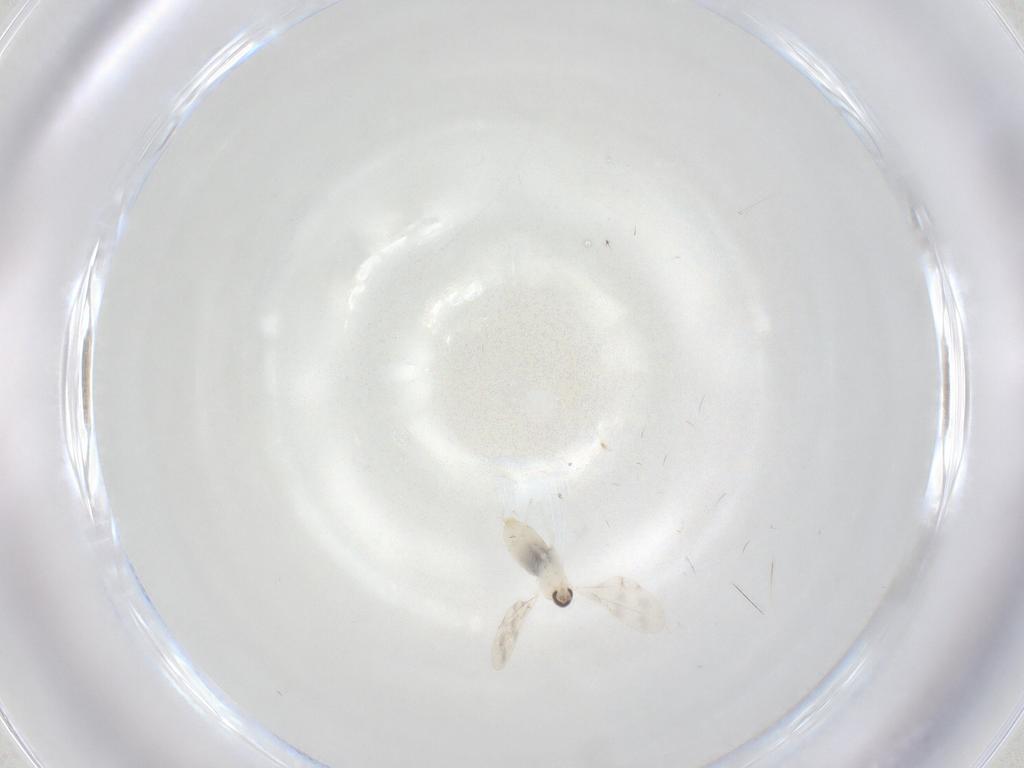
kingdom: Animalia
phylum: Arthropoda
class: Insecta
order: Diptera
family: Cecidomyiidae
